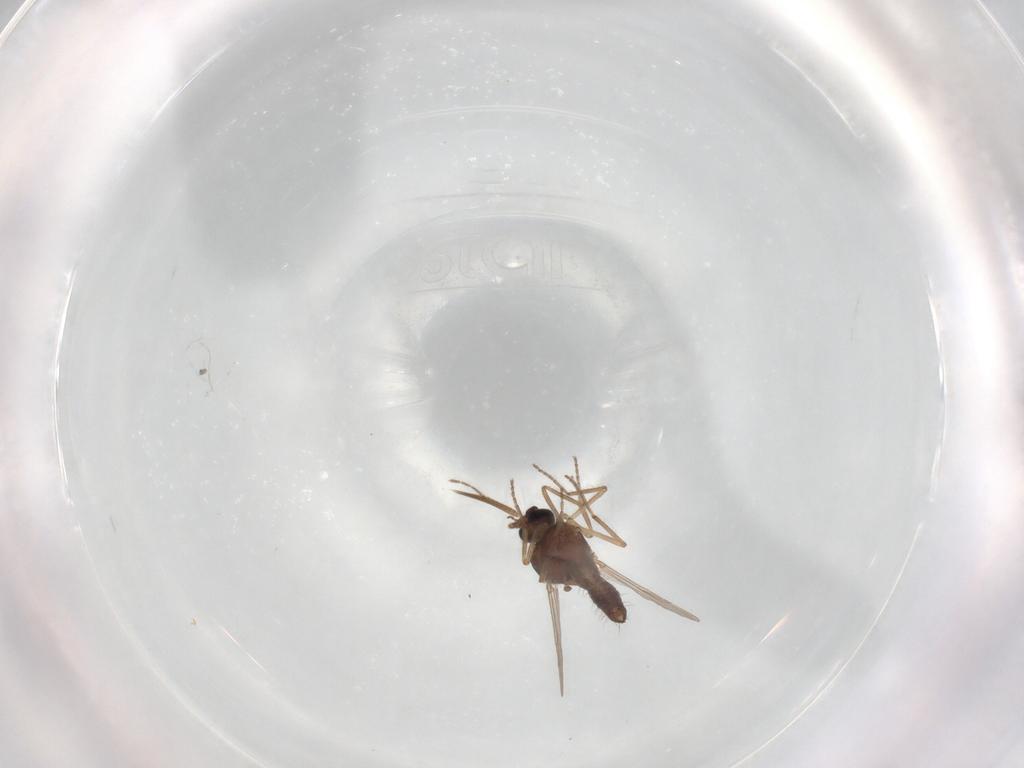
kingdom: Animalia
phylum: Arthropoda
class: Insecta
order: Diptera
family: Ceratopogonidae
